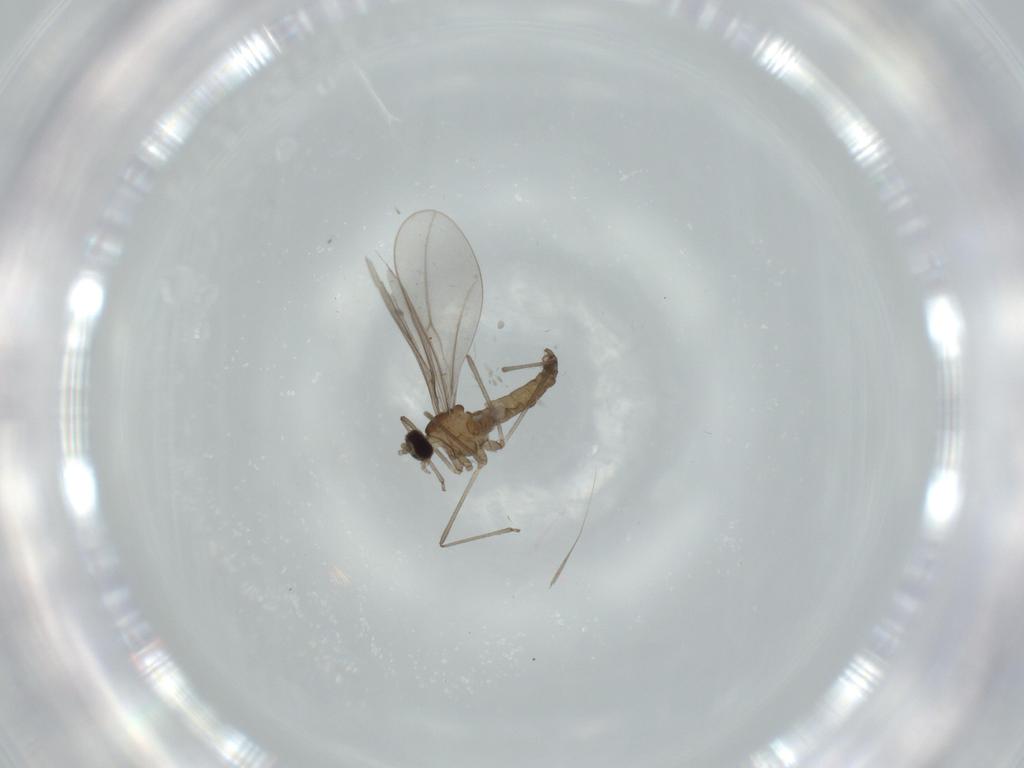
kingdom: Animalia
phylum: Arthropoda
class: Insecta
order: Diptera
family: Cecidomyiidae
